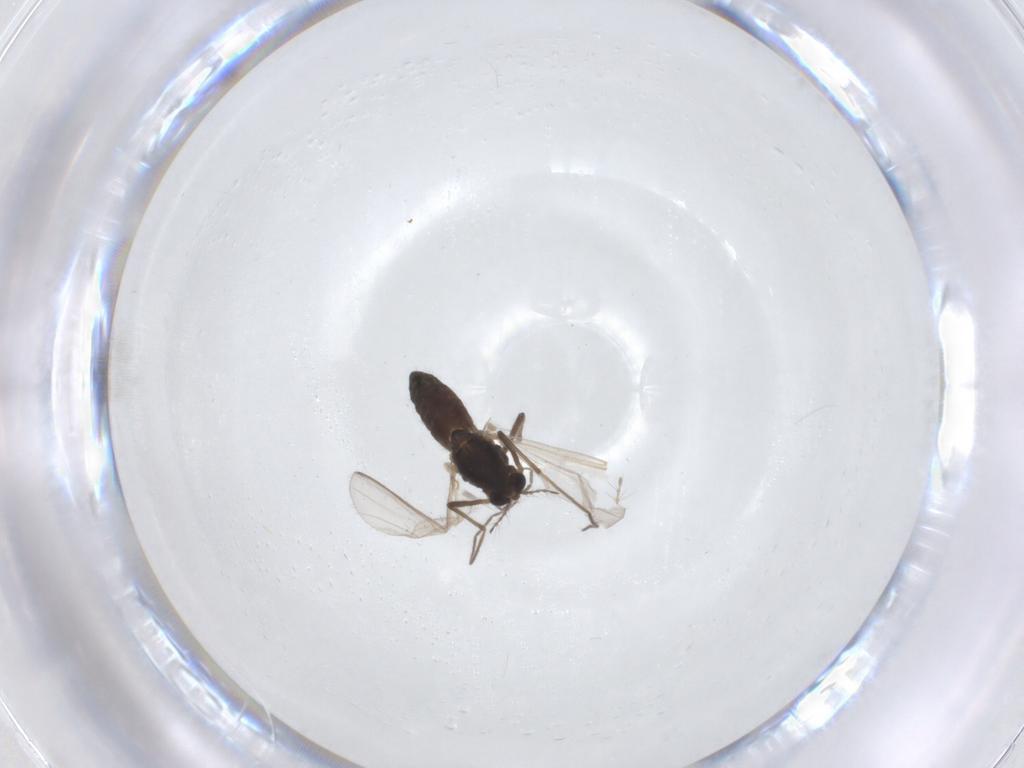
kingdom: Animalia
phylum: Arthropoda
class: Insecta
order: Diptera
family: Chironomidae
